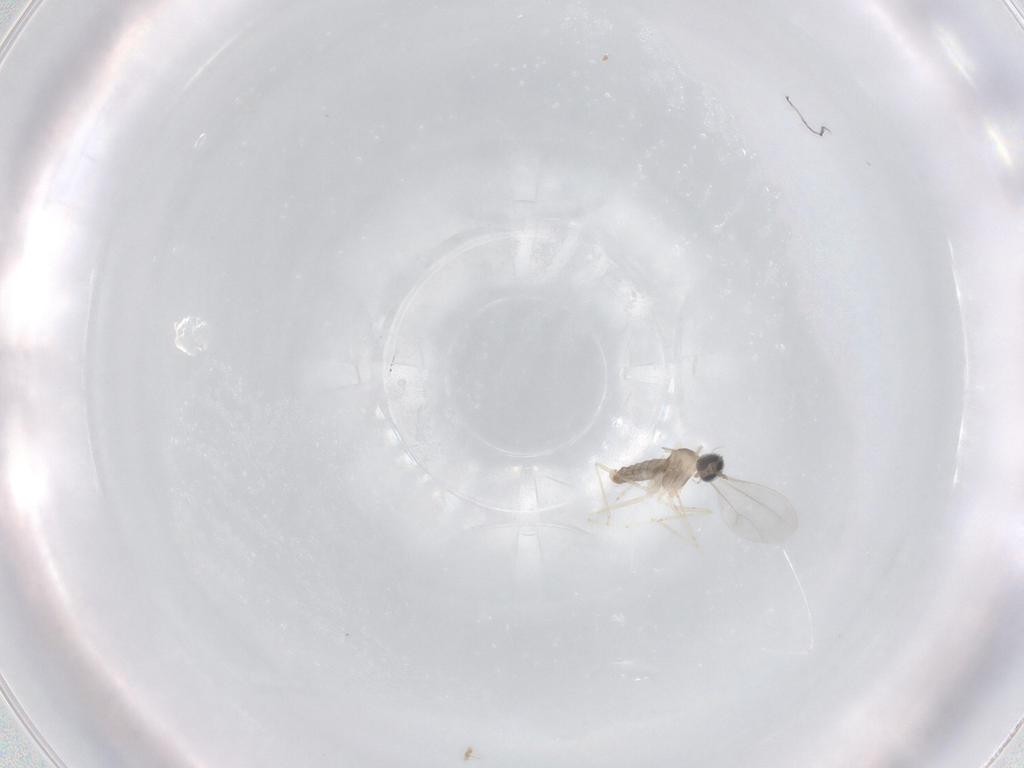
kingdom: Animalia
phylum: Arthropoda
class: Insecta
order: Diptera
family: Cecidomyiidae
